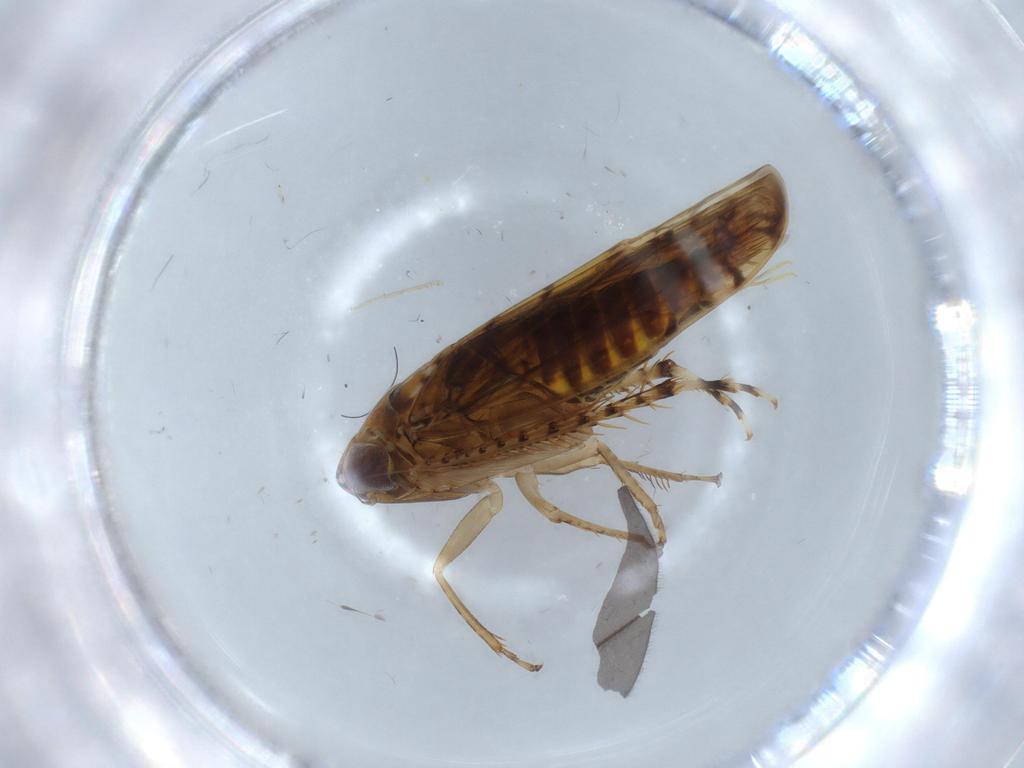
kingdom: Animalia
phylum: Arthropoda
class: Insecta
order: Hemiptera
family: Cicadellidae
